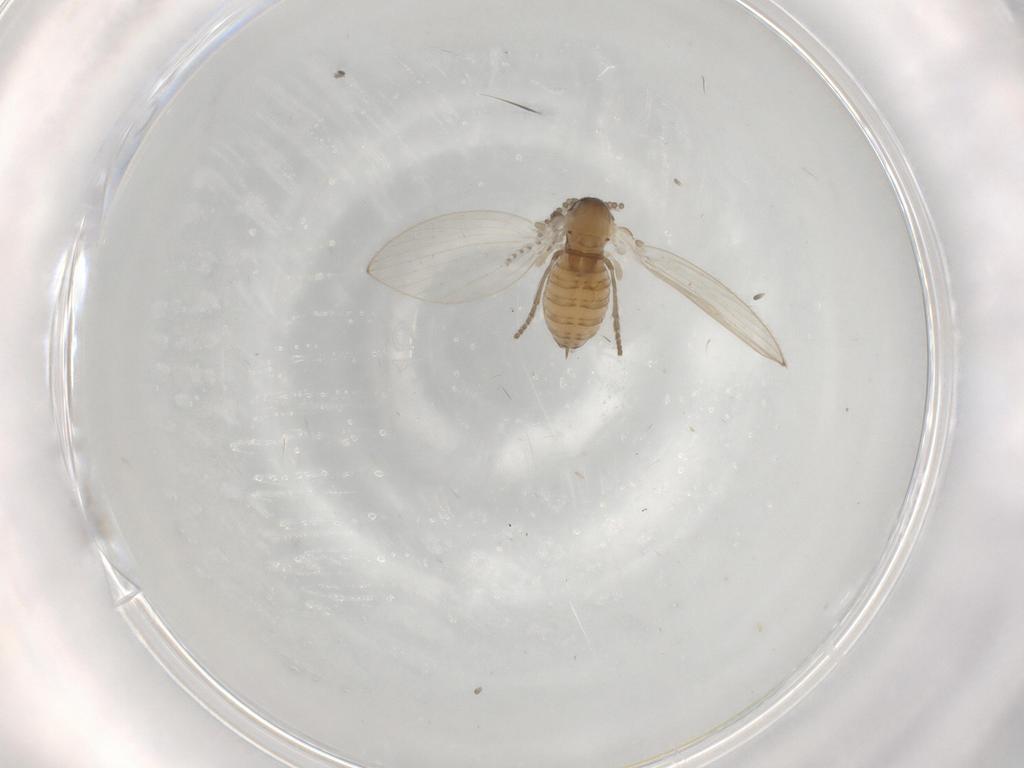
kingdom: Animalia
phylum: Arthropoda
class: Insecta
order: Diptera
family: Psychodidae
